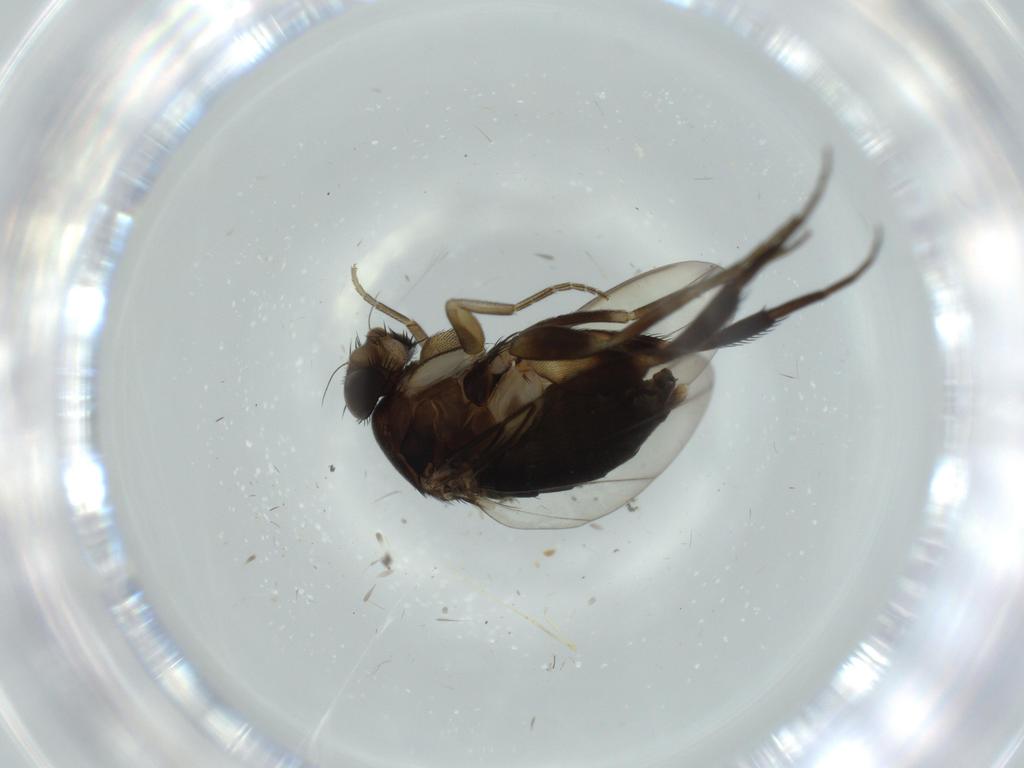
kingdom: Animalia
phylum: Arthropoda
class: Insecta
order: Diptera
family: Phoridae
